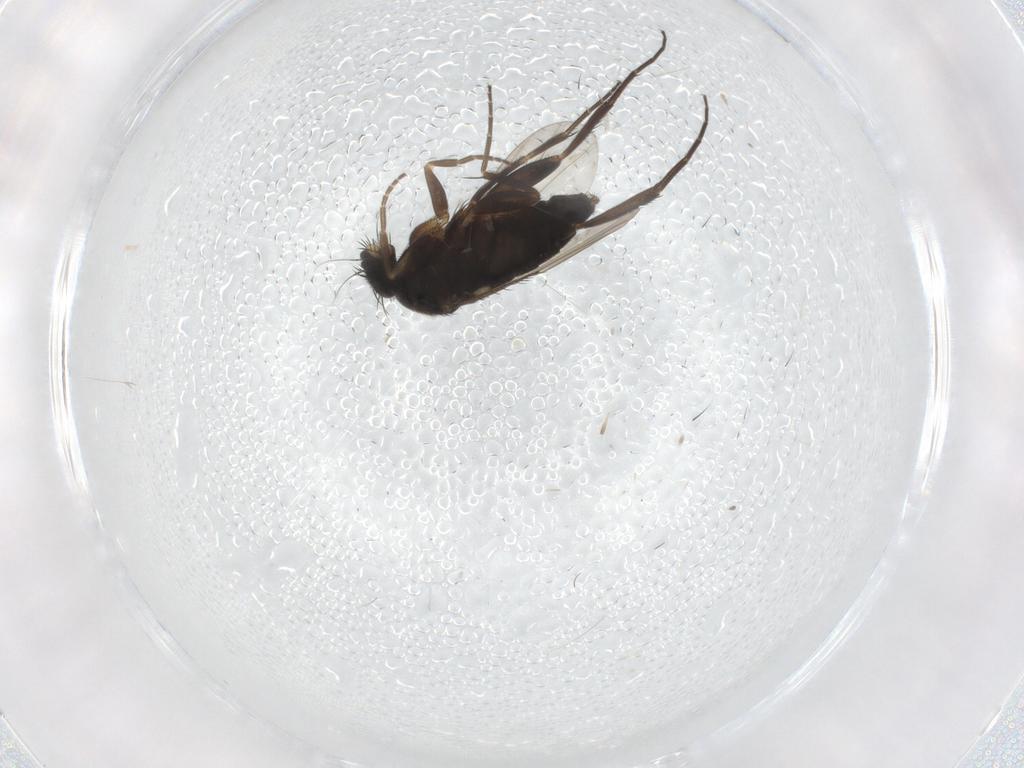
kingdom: Animalia
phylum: Arthropoda
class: Insecta
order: Diptera
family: Phoridae
